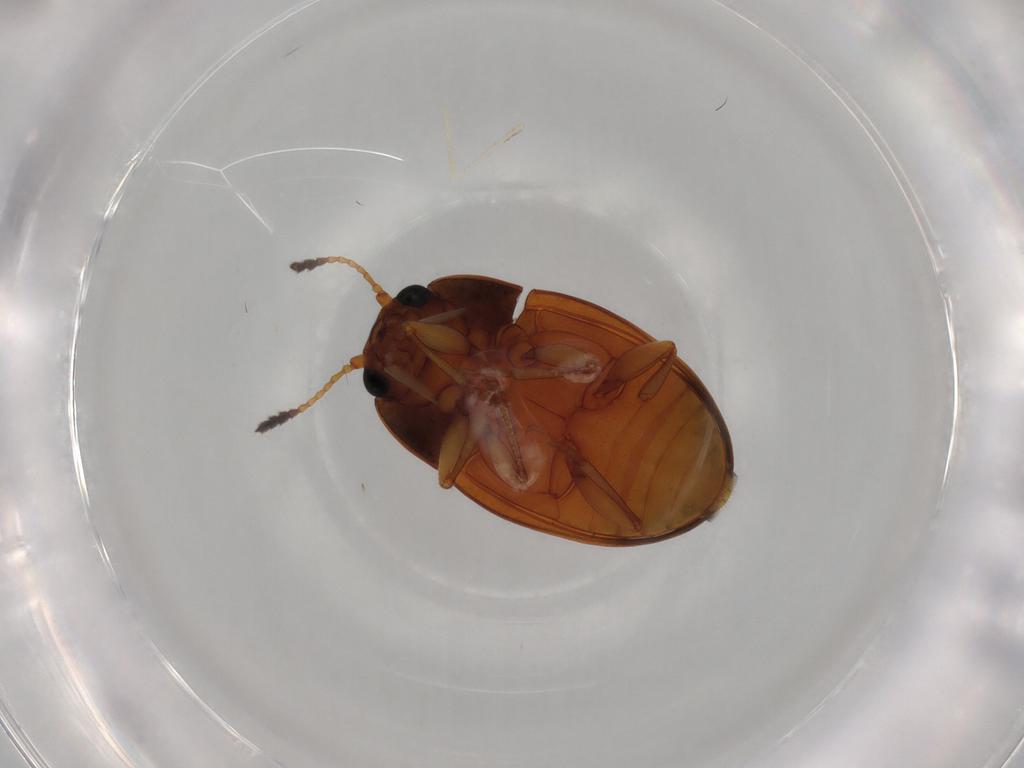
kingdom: Animalia
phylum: Arthropoda
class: Insecta
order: Coleoptera
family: Erotylidae
